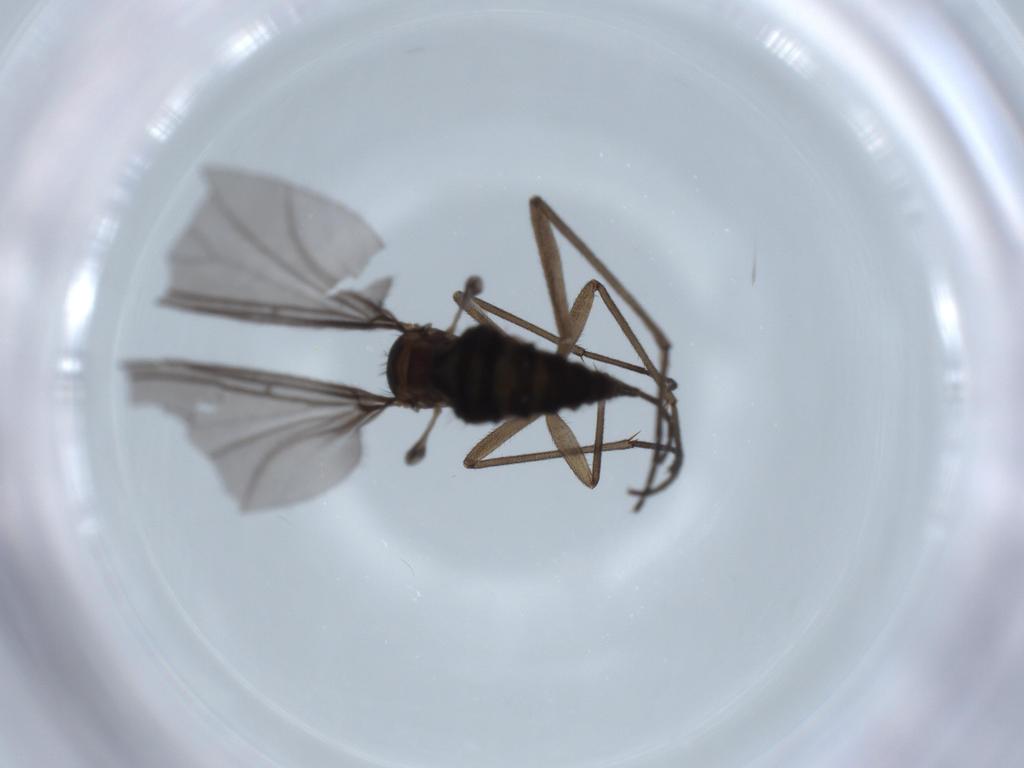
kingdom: Animalia
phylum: Arthropoda
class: Insecta
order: Diptera
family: Sciaridae
